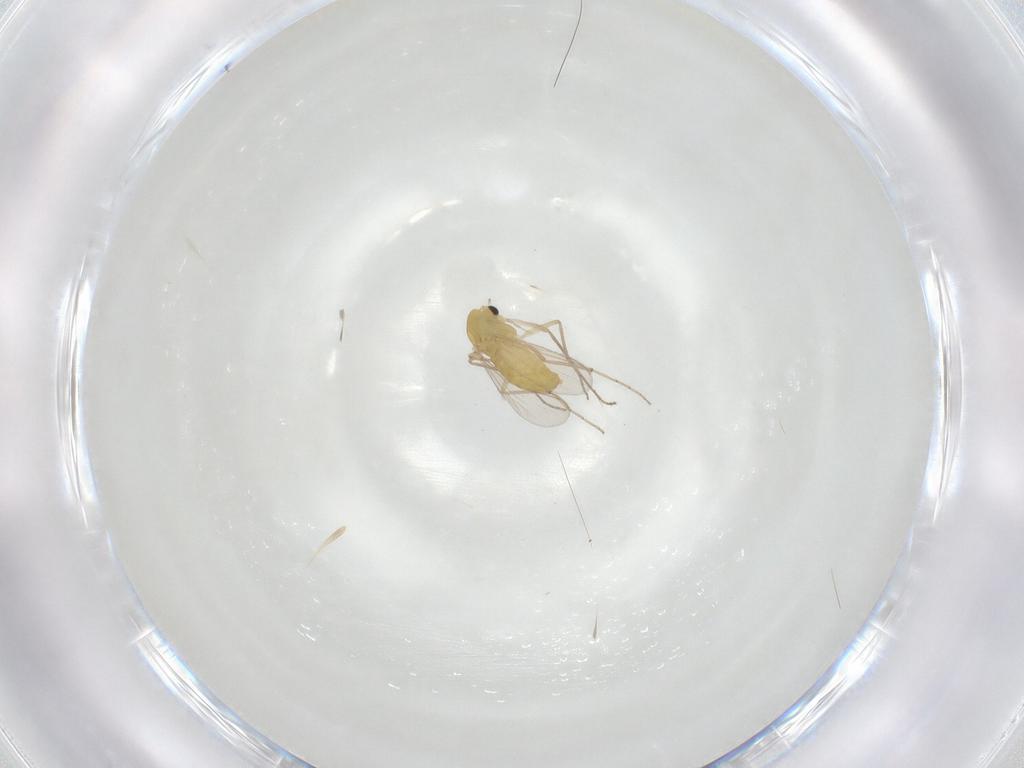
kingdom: Animalia
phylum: Arthropoda
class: Insecta
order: Diptera
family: Chironomidae
